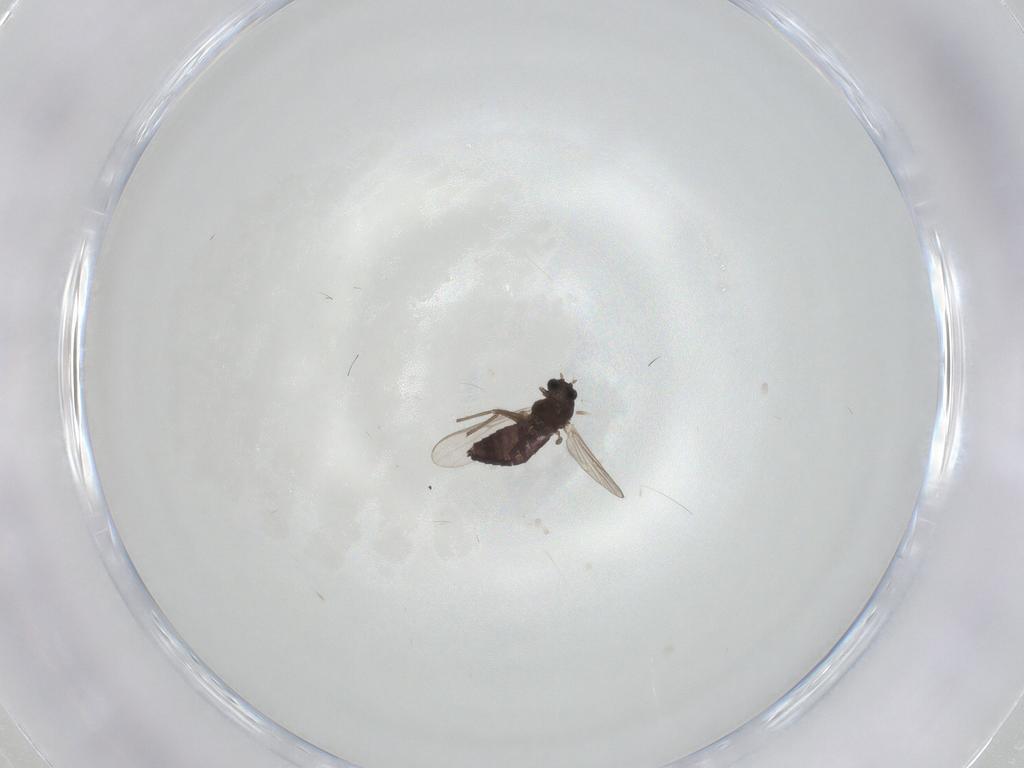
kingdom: Animalia
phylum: Arthropoda
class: Insecta
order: Diptera
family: Chironomidae
